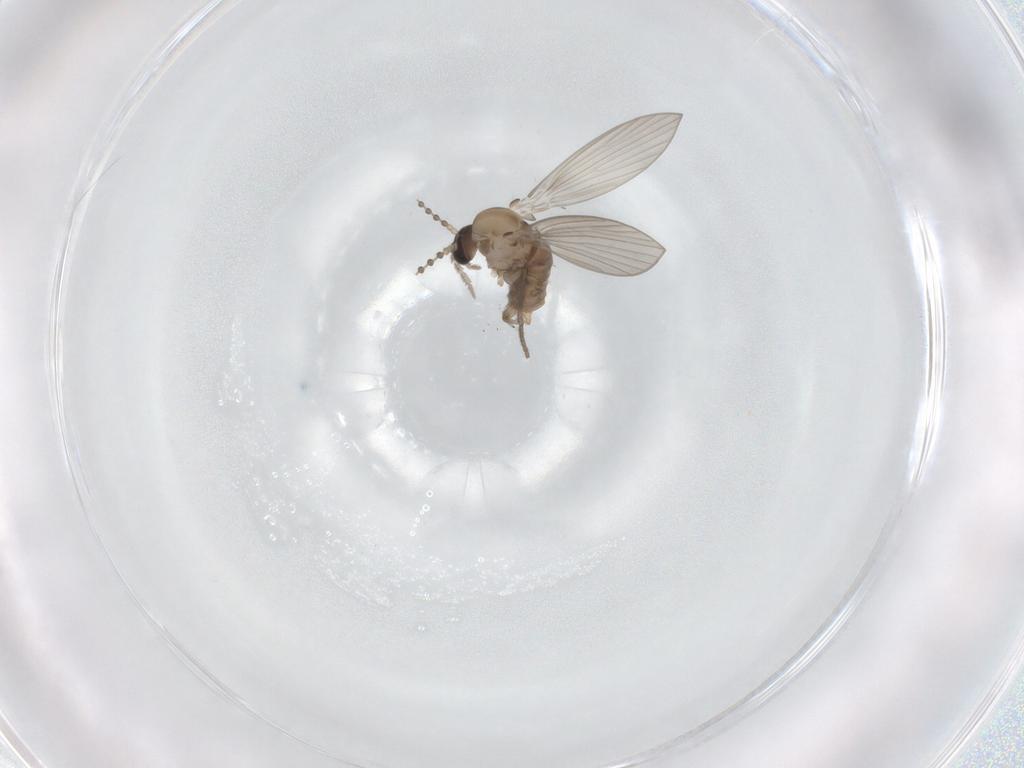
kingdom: Animalia
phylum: Arthropoda
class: Insecta
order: Diptera
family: Psychodidae
